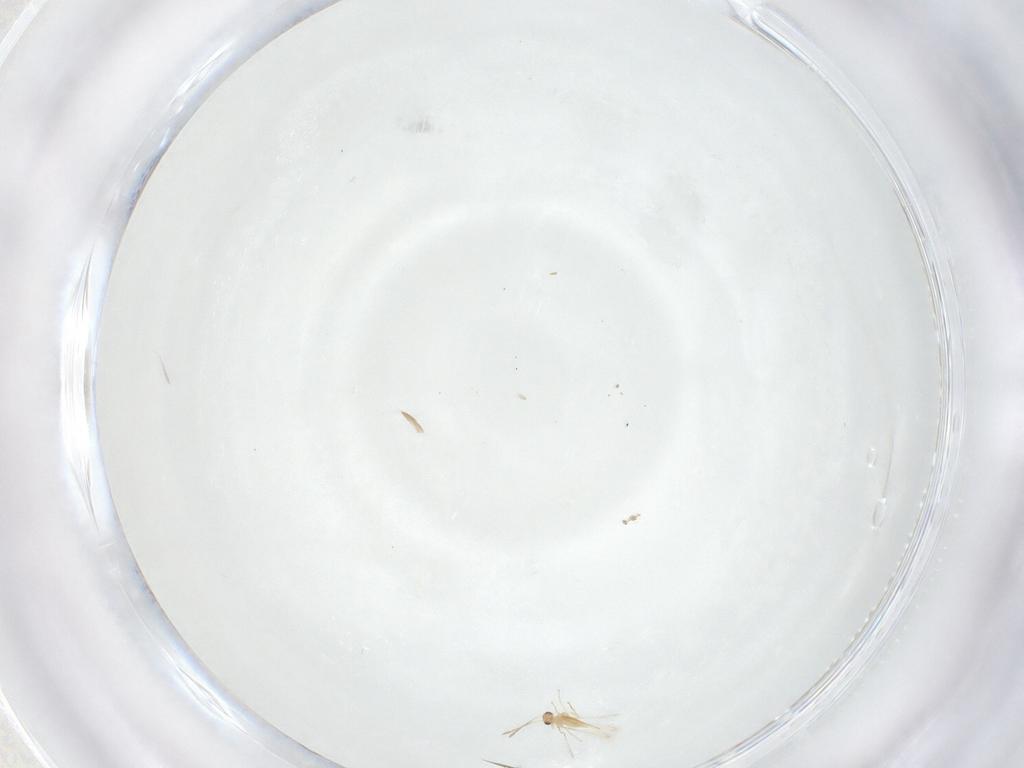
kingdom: Animalia
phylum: Arthropoda
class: Insecta
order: Hymenoptera
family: Mymaridae
